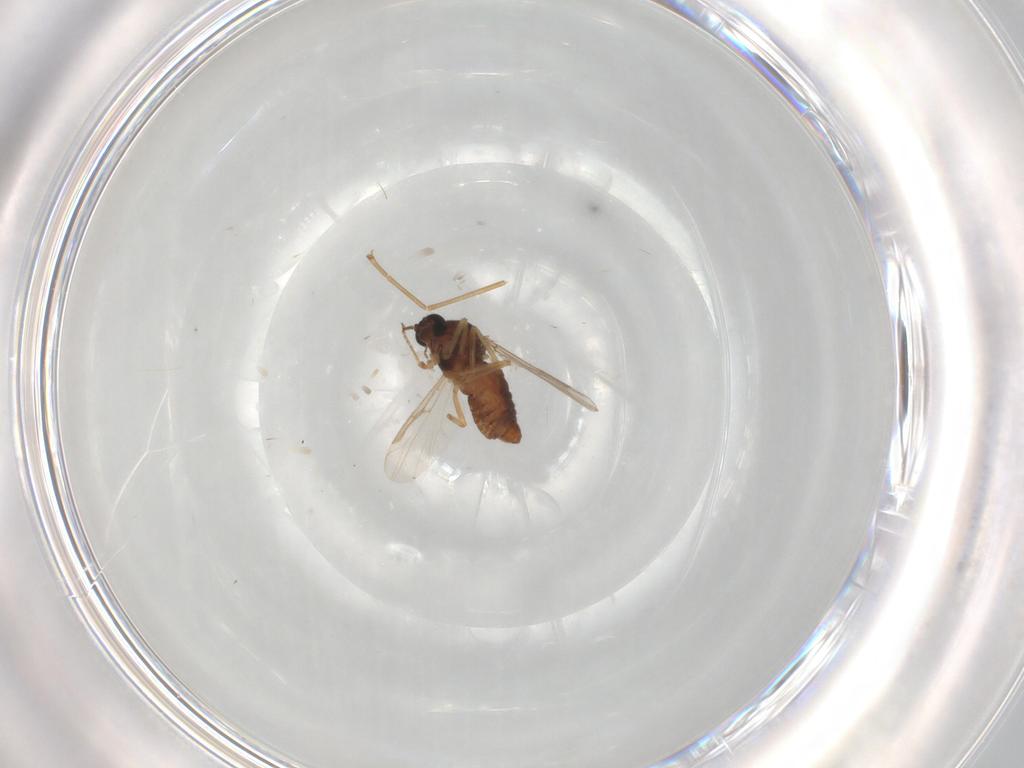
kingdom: Animalia
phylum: Arthropoda
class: Insecta
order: Diptera
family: Ceratopogonidae
